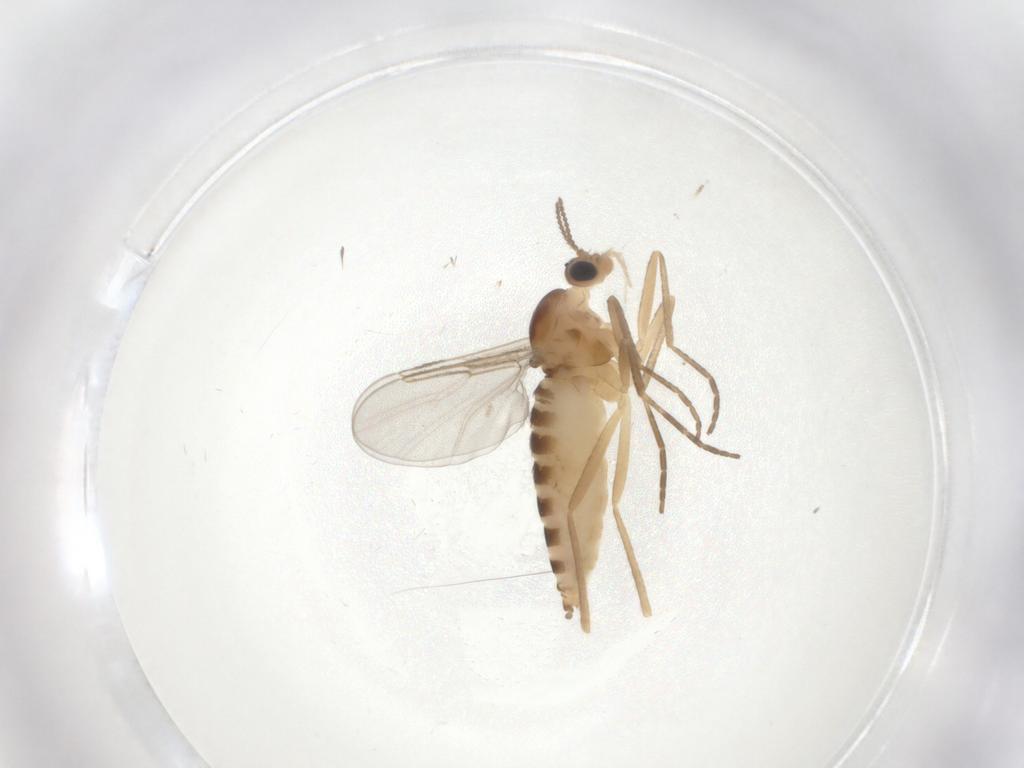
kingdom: Animalia
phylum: Arthropoda
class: Insecta
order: Diptera
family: Cecidomyiidae
